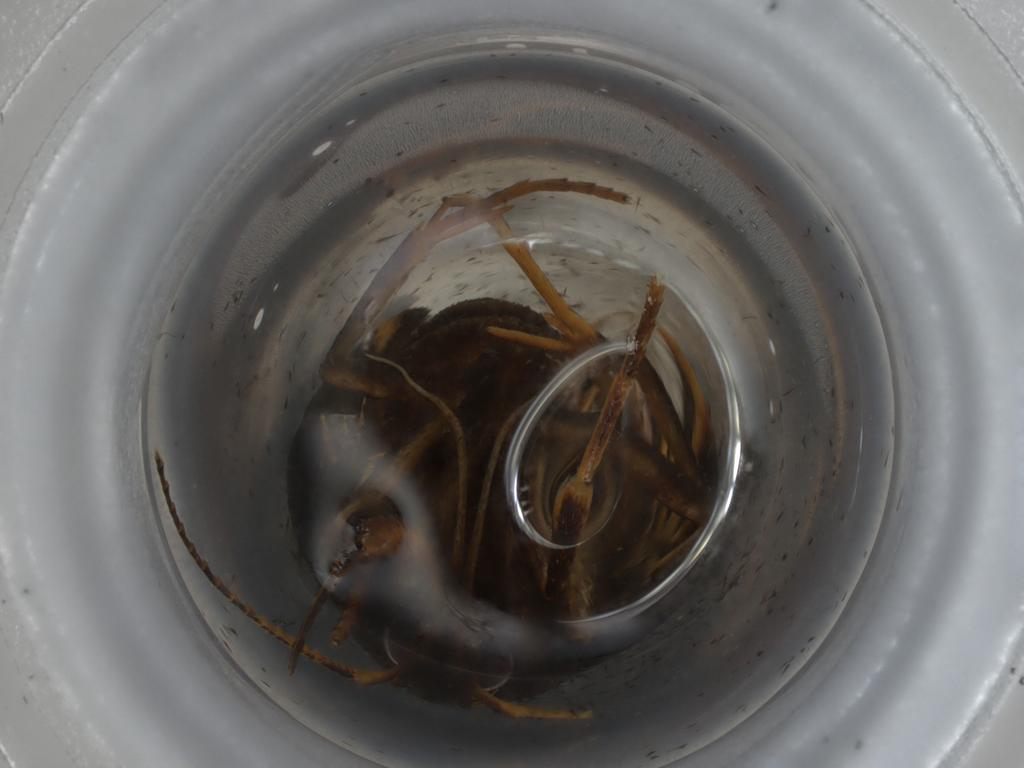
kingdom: Animalia
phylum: Arthropoda
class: Insecta
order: Lepidoptera
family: Lecithoceridae
